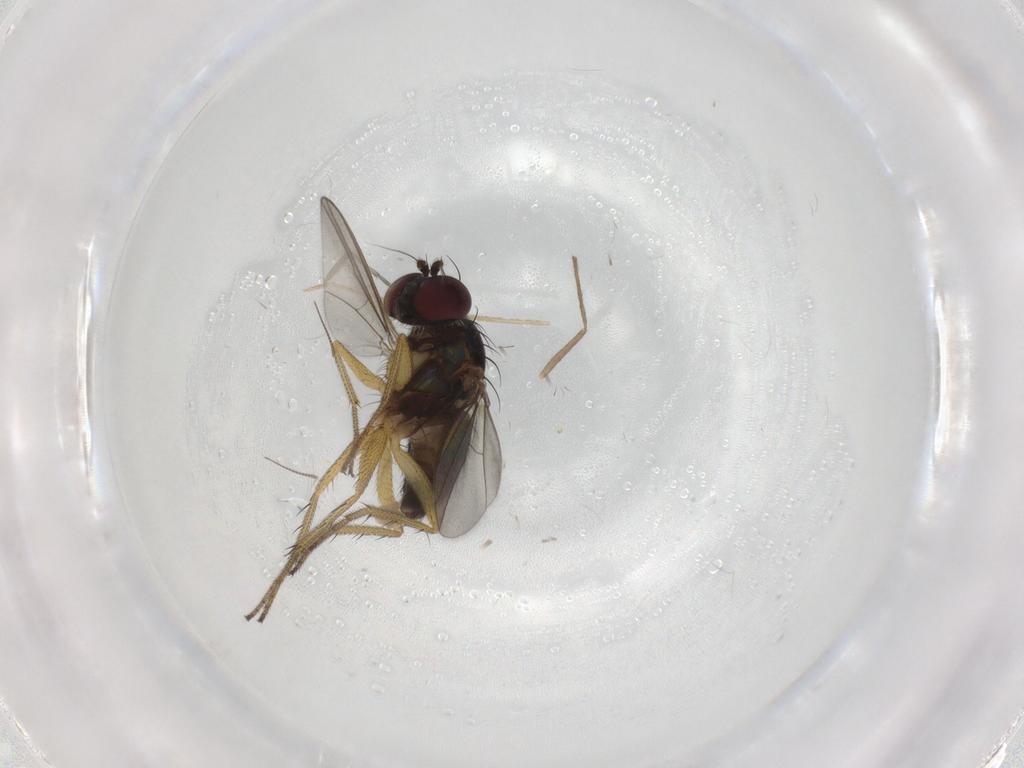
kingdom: Animalia
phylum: Arthropoda
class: Insecta
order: Diptera
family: Dolichopodidae
